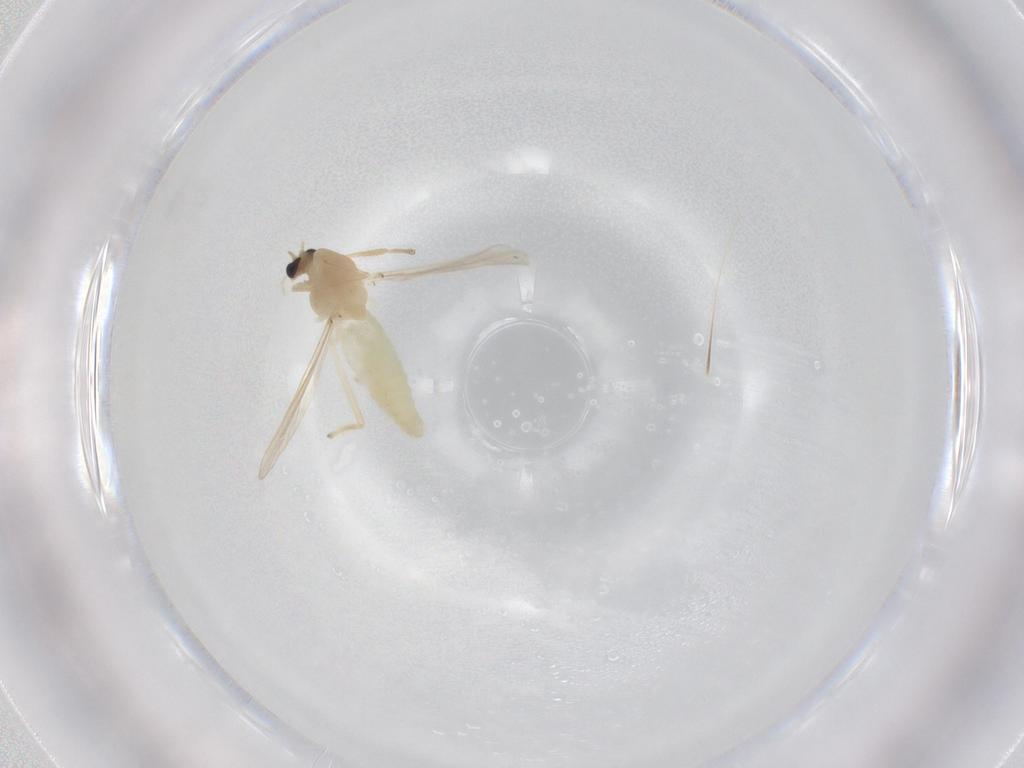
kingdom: Animalia
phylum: Arthropoda
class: Insecta
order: Diptera
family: Chironomidae
